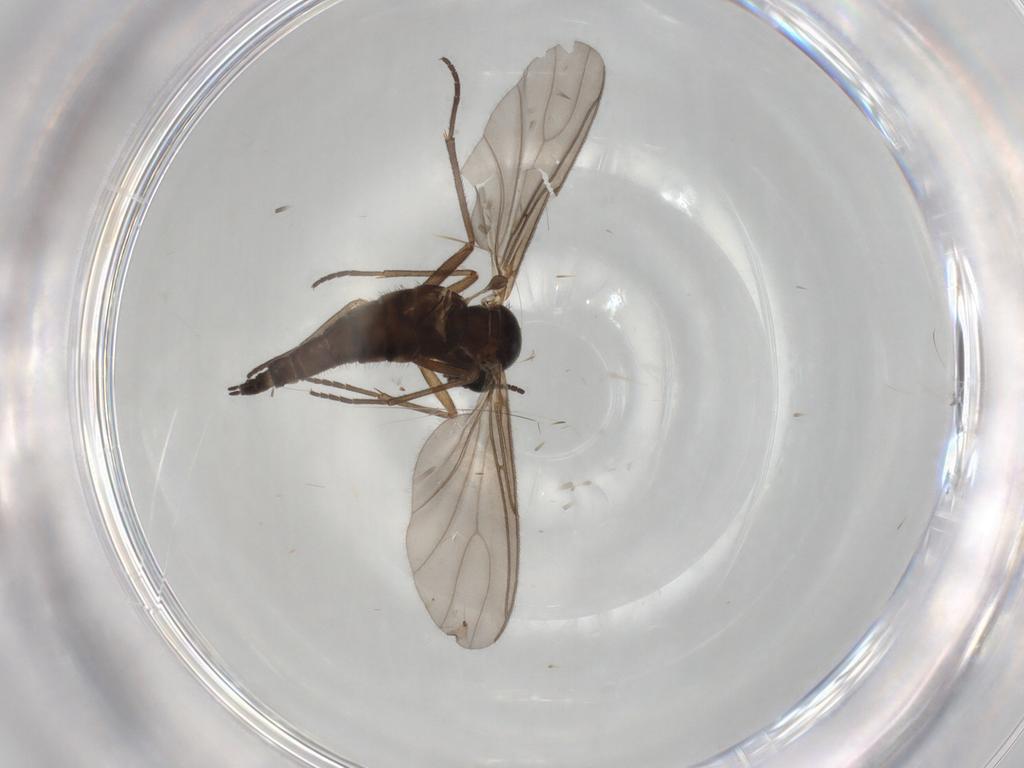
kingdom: Animalia
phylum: Arthropoda
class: Insecta
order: Diptera
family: Sciaridae
